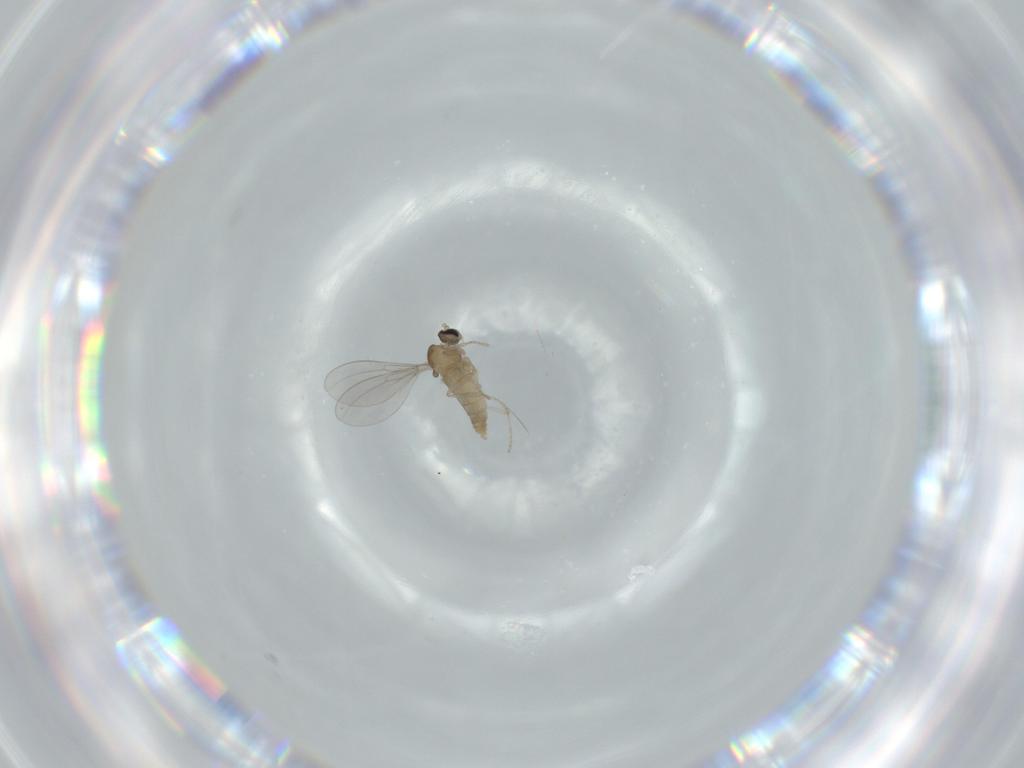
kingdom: Animalia
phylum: Arthropoda
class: Insecta
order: Diptera
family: Cecidomyiidae
